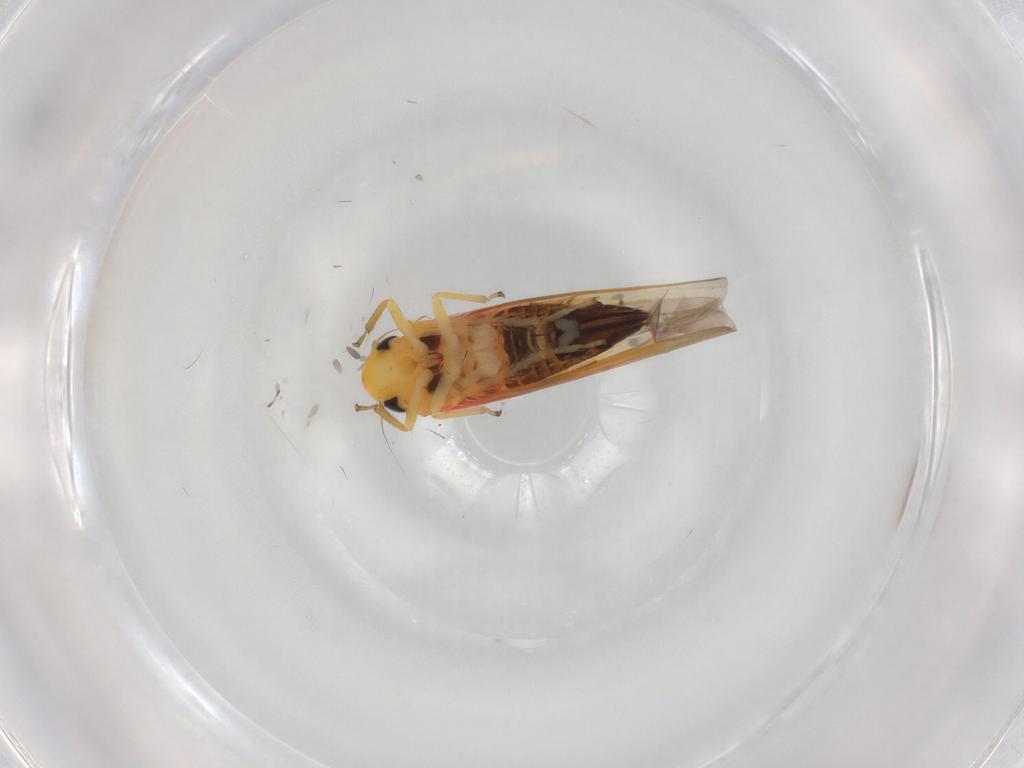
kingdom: Animalia
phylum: Arthropoda
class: Insecta
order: Hemiptera
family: Cicadellidae
